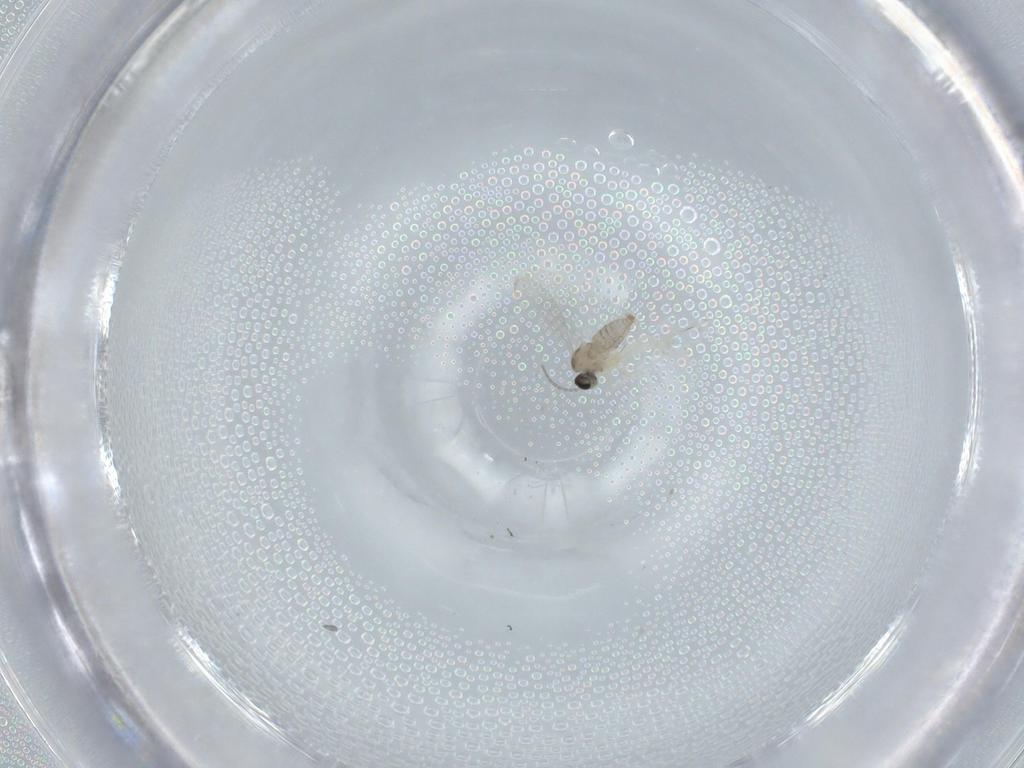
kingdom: Animalia
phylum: Arthropoda
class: Insecta
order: Diptera
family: Cecidomyiidae
